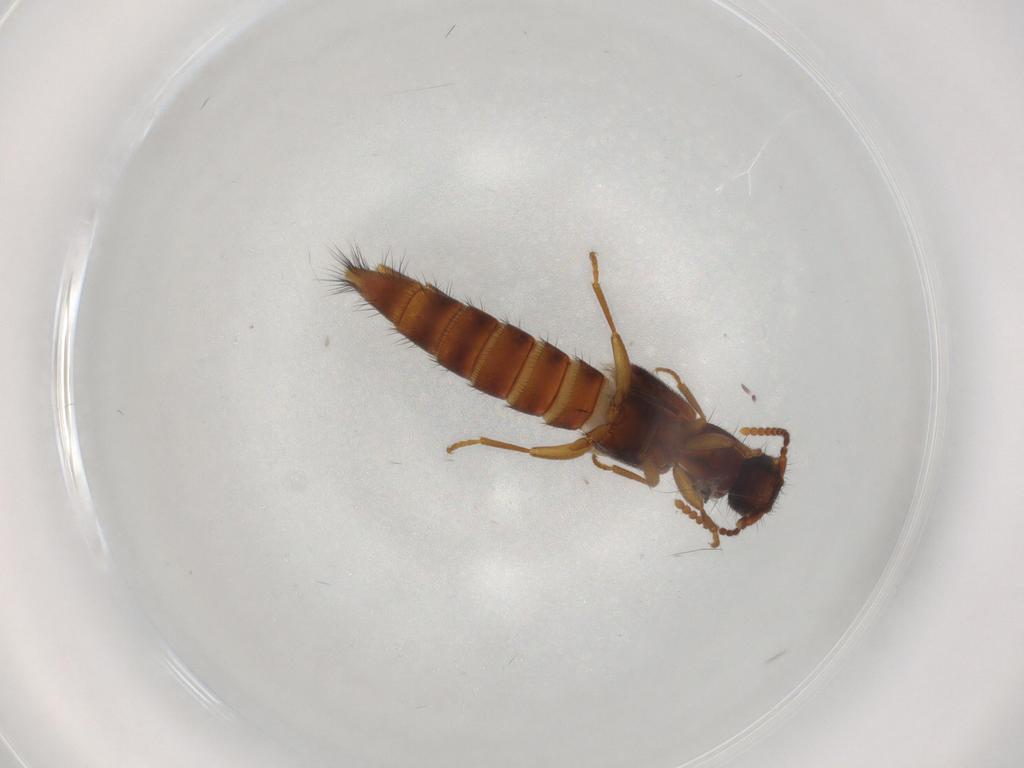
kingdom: Animalia
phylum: Arthropoda
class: Insecta
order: Coleoptera
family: Staphylinidae
